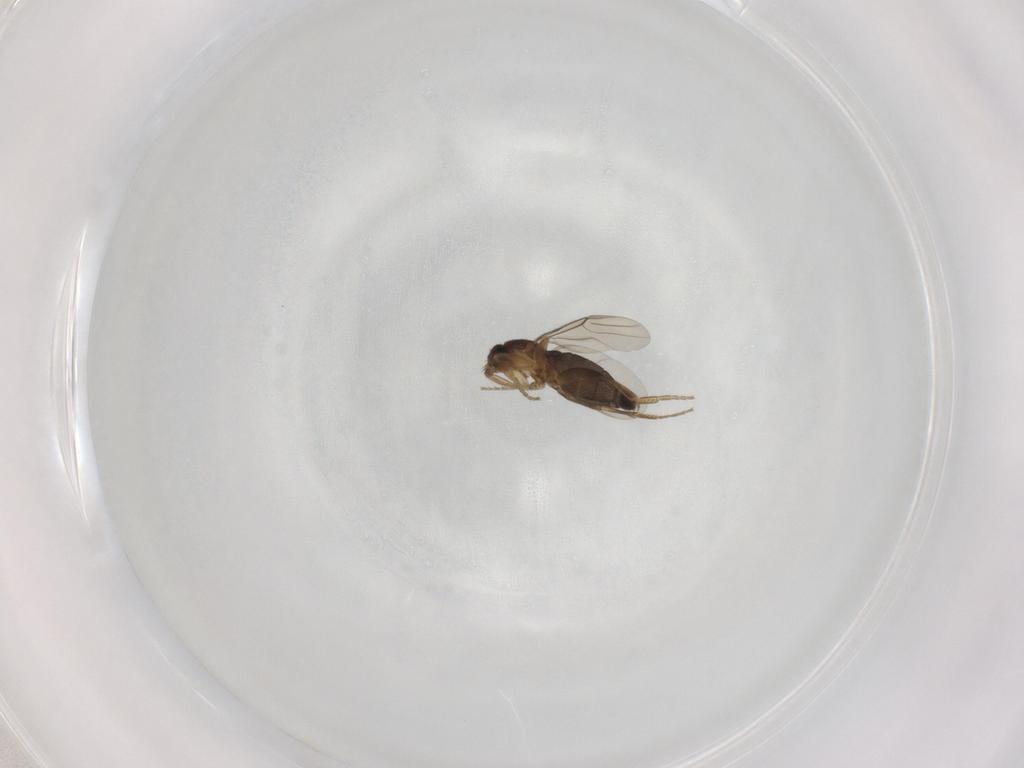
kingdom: Animalia
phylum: Arthropoda
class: Insecta
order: Diptera
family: Phoridae
